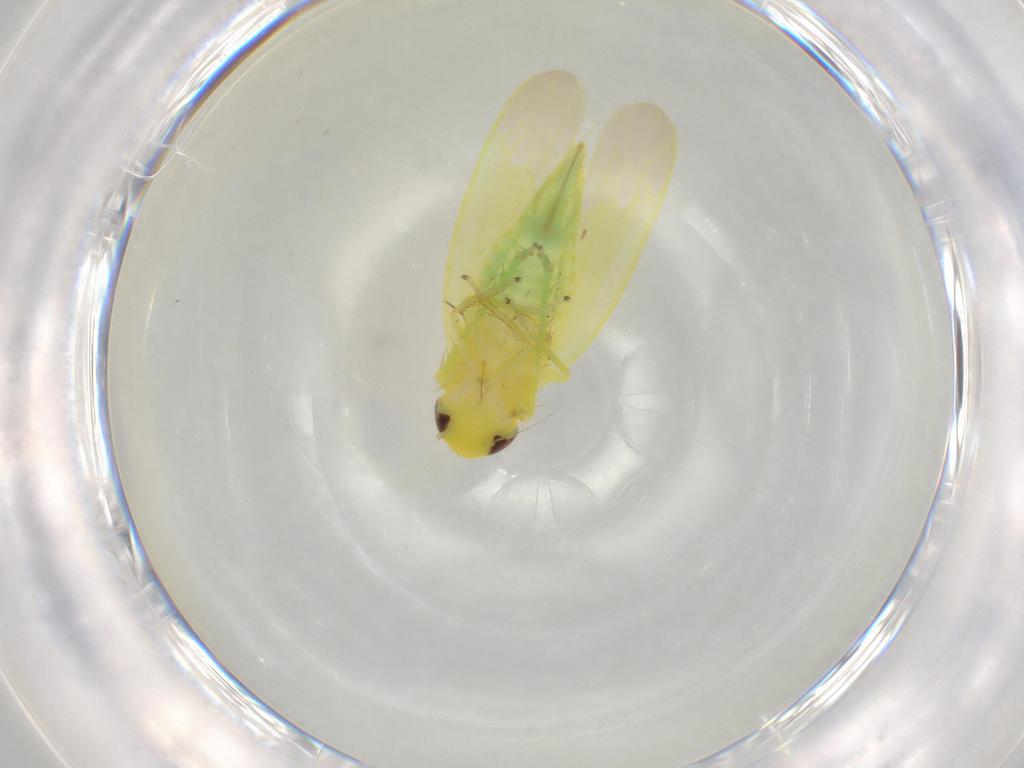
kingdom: Animalia
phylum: Arthropoda
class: Insecta
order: Hemiptera
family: Cicadellidae
